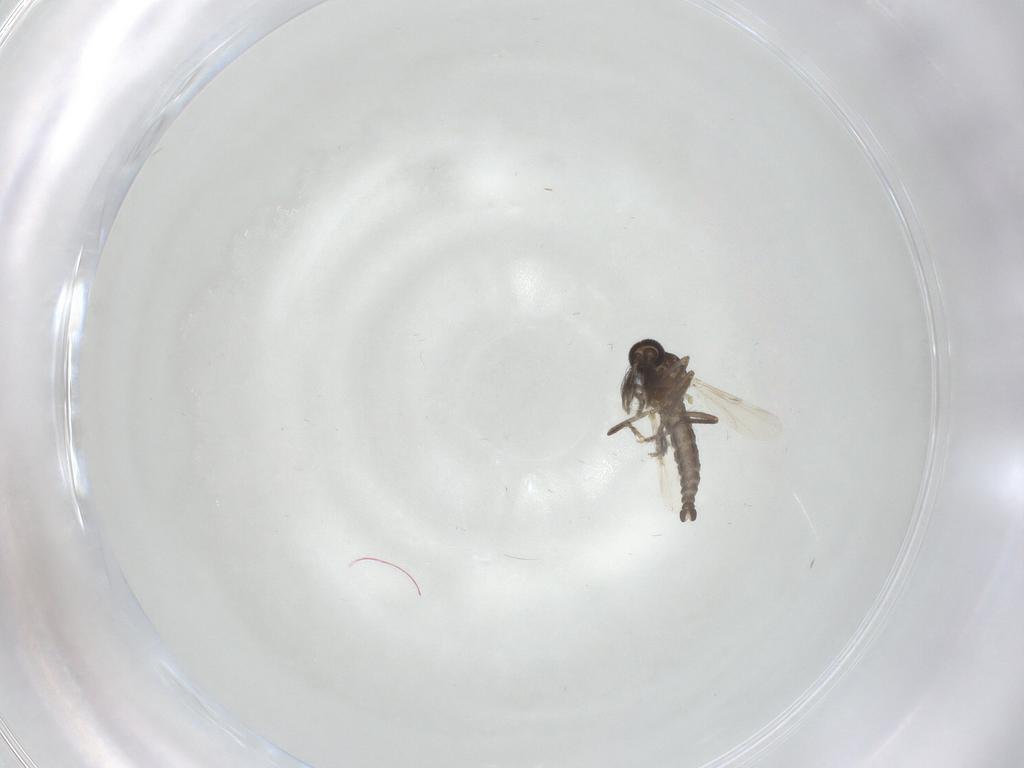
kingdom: Animalia
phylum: Arthropoda
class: Insecta
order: Diptera
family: Ceratopogonidae
